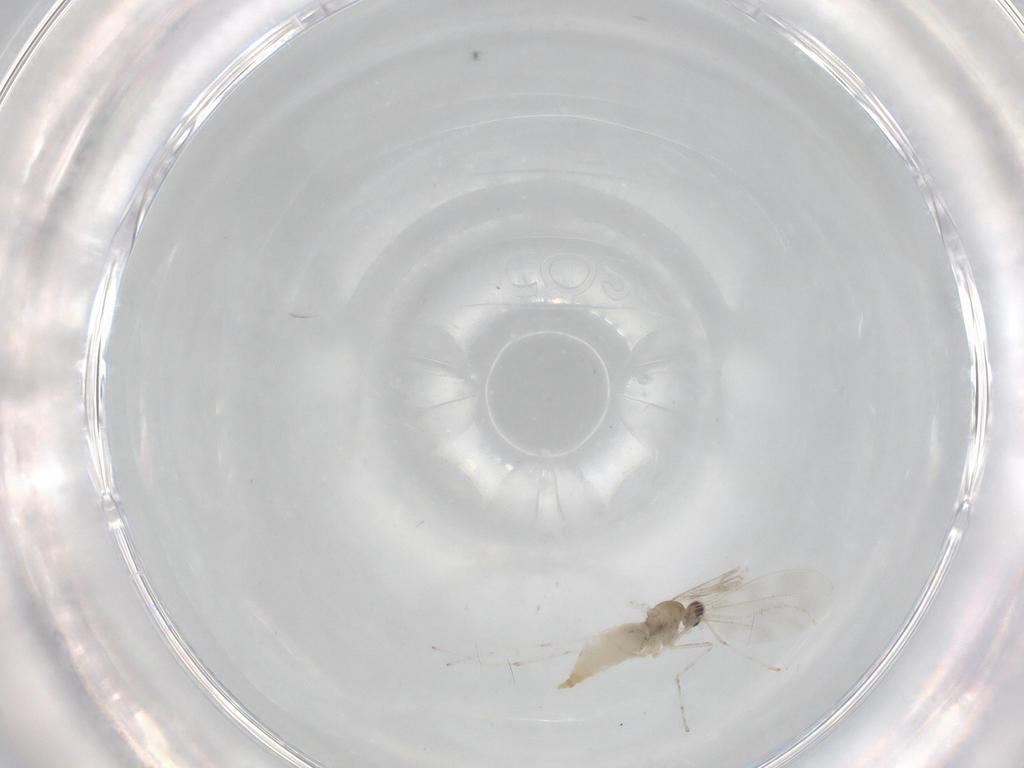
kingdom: Animalia
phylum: Arthropoda
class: Insecta
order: Diptera
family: Cecidomyiidae
